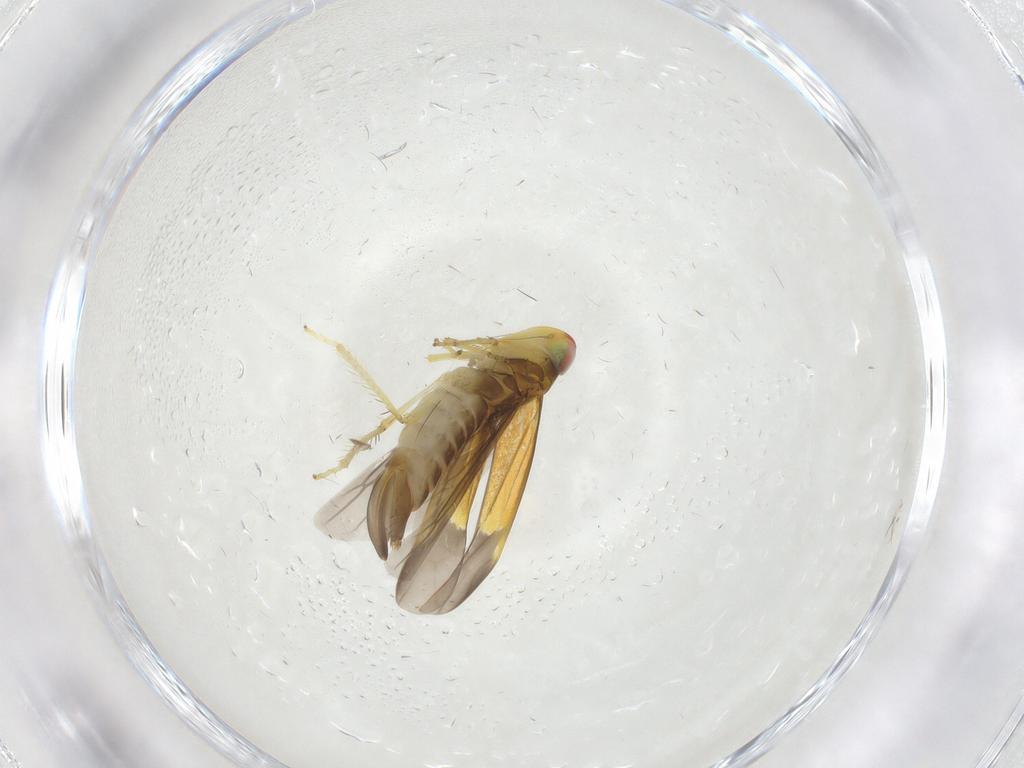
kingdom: Animalia
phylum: Arthropoda
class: Insecta
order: Hemiptera
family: Cicadellidae
